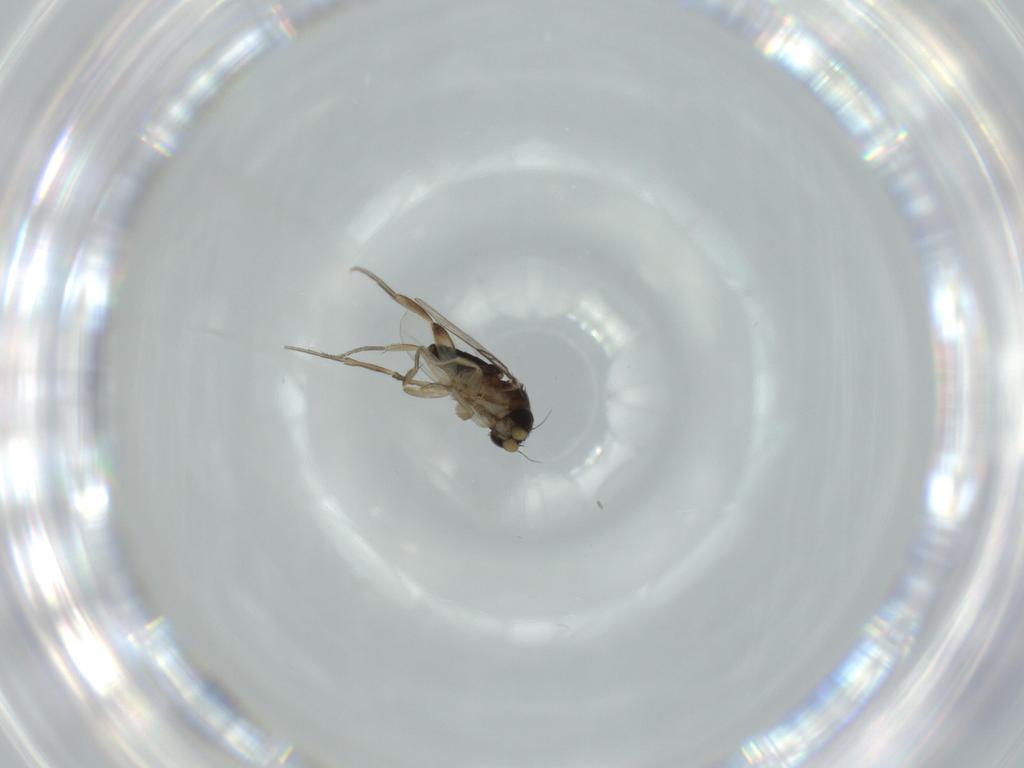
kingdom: Animalia
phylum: Arthropoda
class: Insecta
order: Diptera
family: Phoridae
